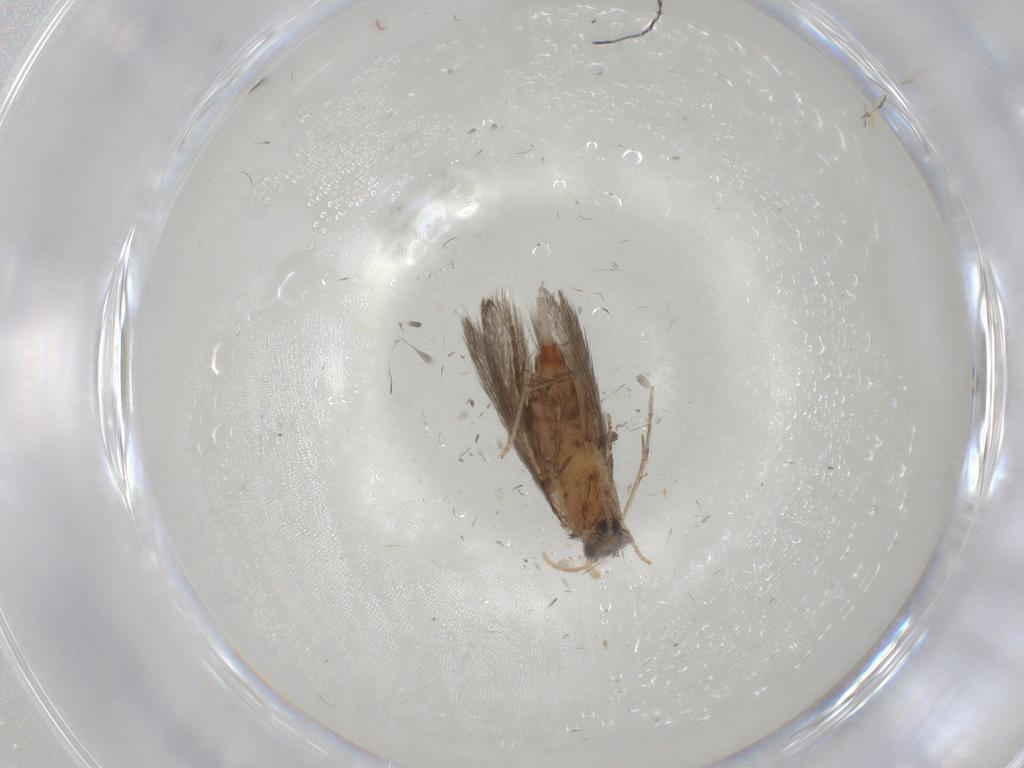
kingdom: Animalia
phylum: Arthropoda
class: Insecta
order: Trichoptera
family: Hydroptilidae
